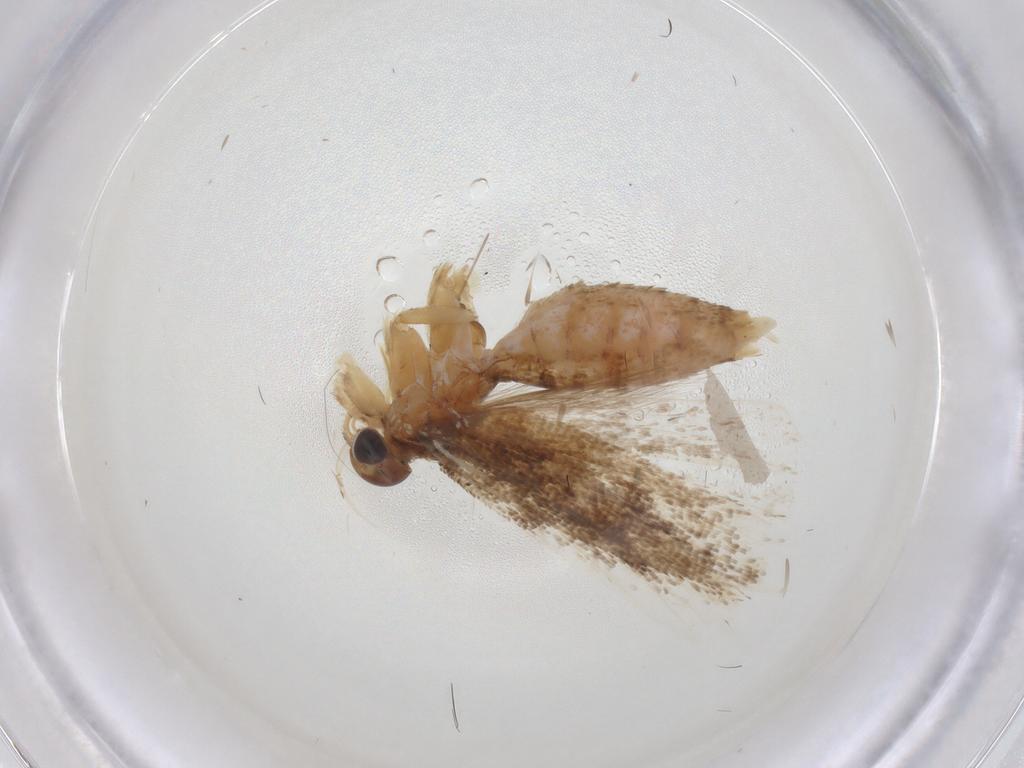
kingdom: Animalia
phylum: Arthropoda
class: Insecta
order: Lepidoptera
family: Gelechiidae
